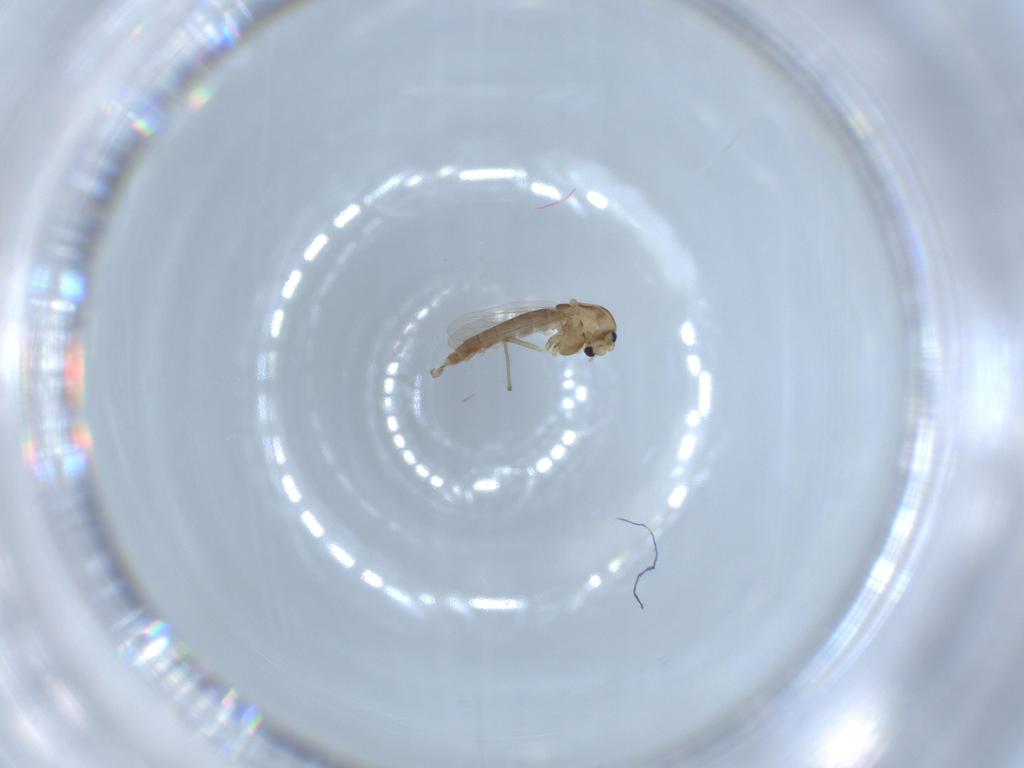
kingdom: Animalia
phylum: Arthropoda
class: Insecta
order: Diptera
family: Chironomidae
